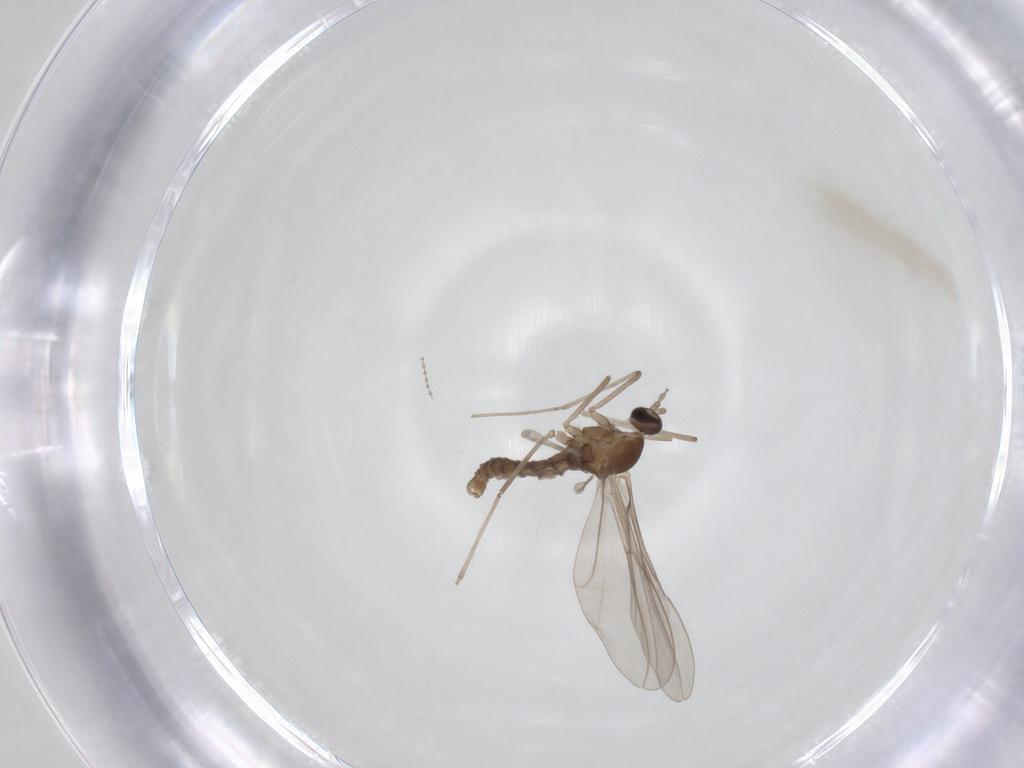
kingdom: Animalia
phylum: Arthropoda
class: Insecta
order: Diptera
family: Cecidomyiidae
